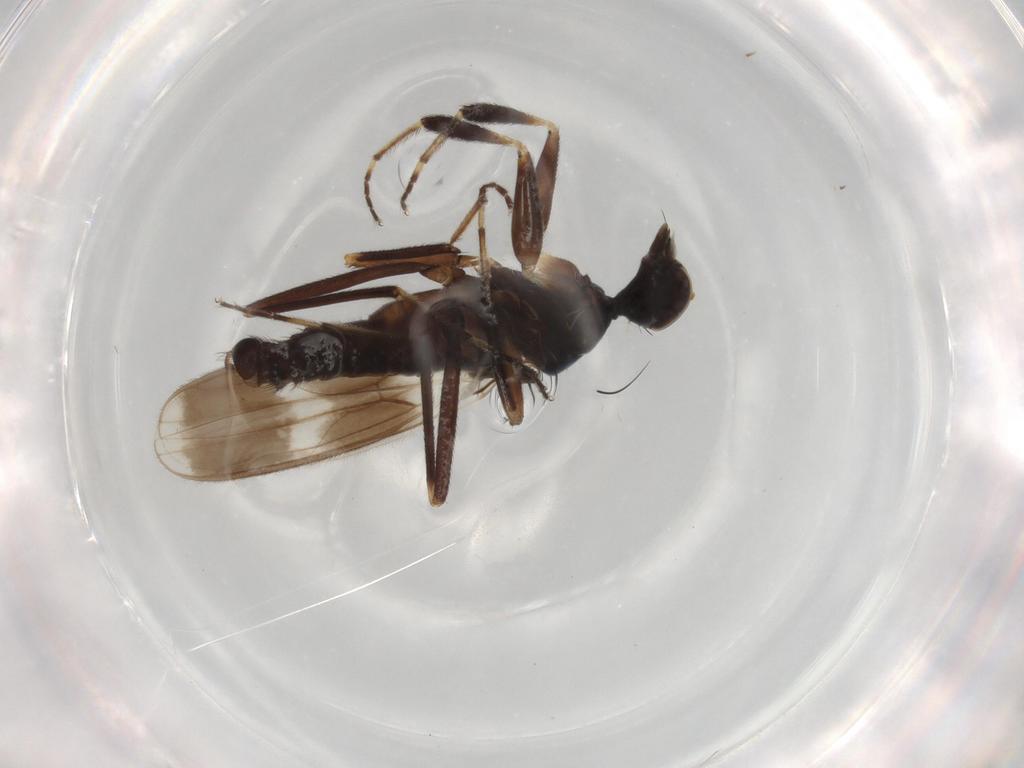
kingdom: Animalia
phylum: Arthropoda
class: Insecta
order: Diptera
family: Hybotidae
